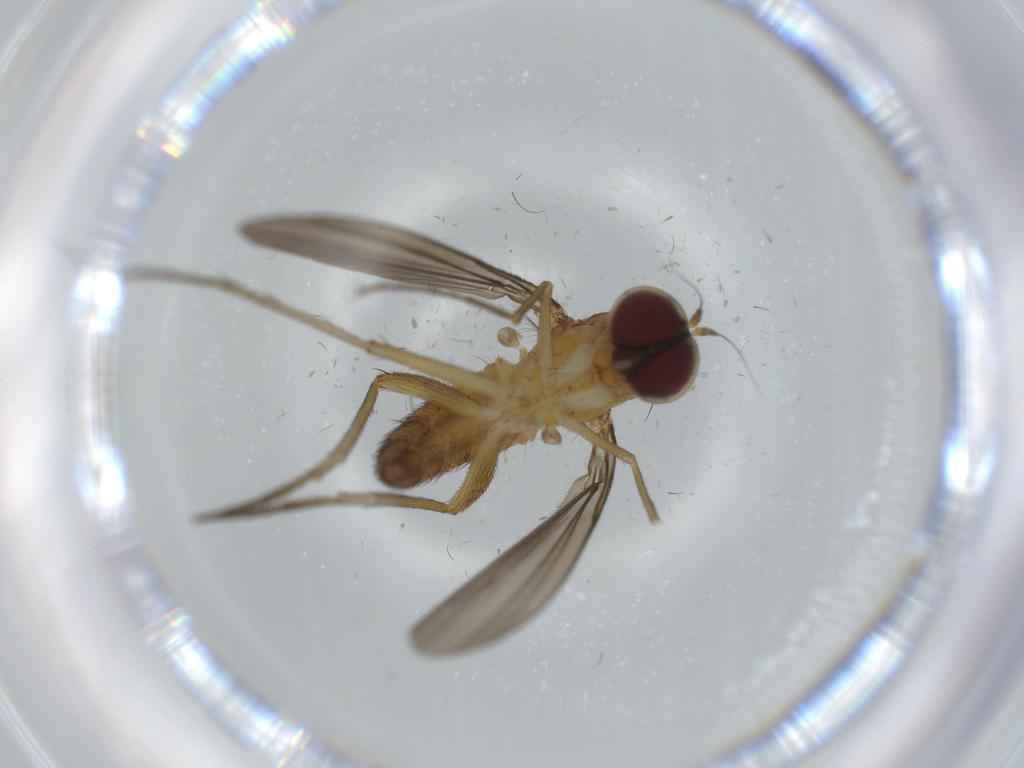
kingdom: Animalia
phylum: Arthropoda
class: Insecta
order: Diptera
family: Dolichopodidae
